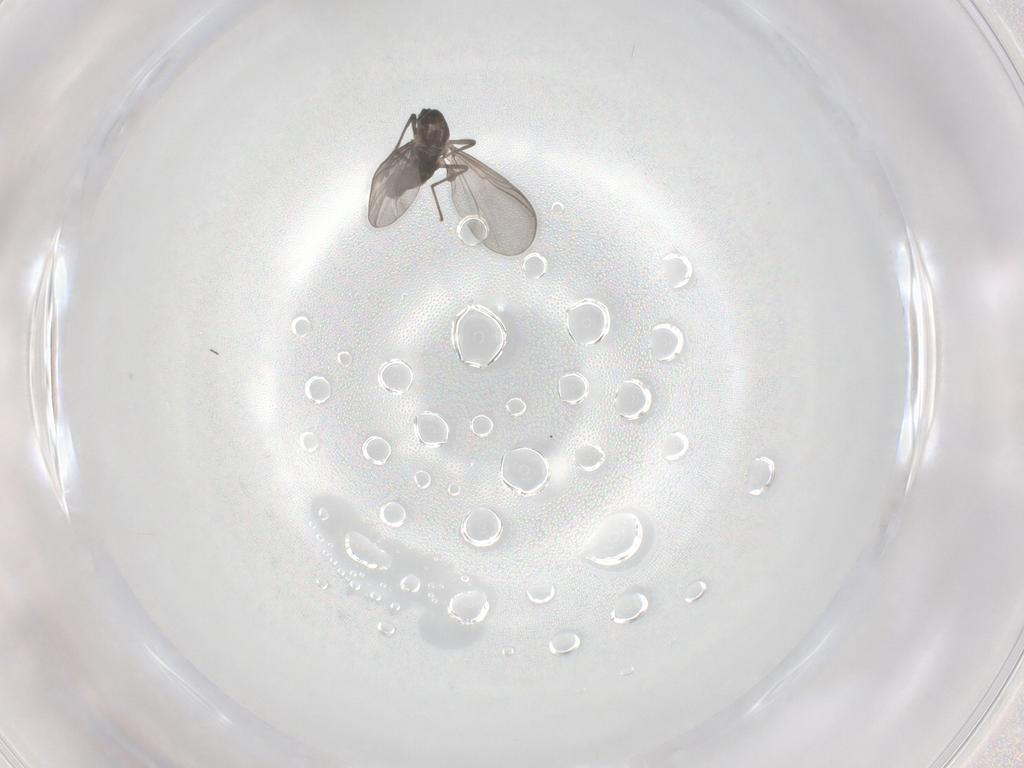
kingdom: Animalia
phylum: Arthropoda
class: Insecta
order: Diptera
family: Chironomidae
